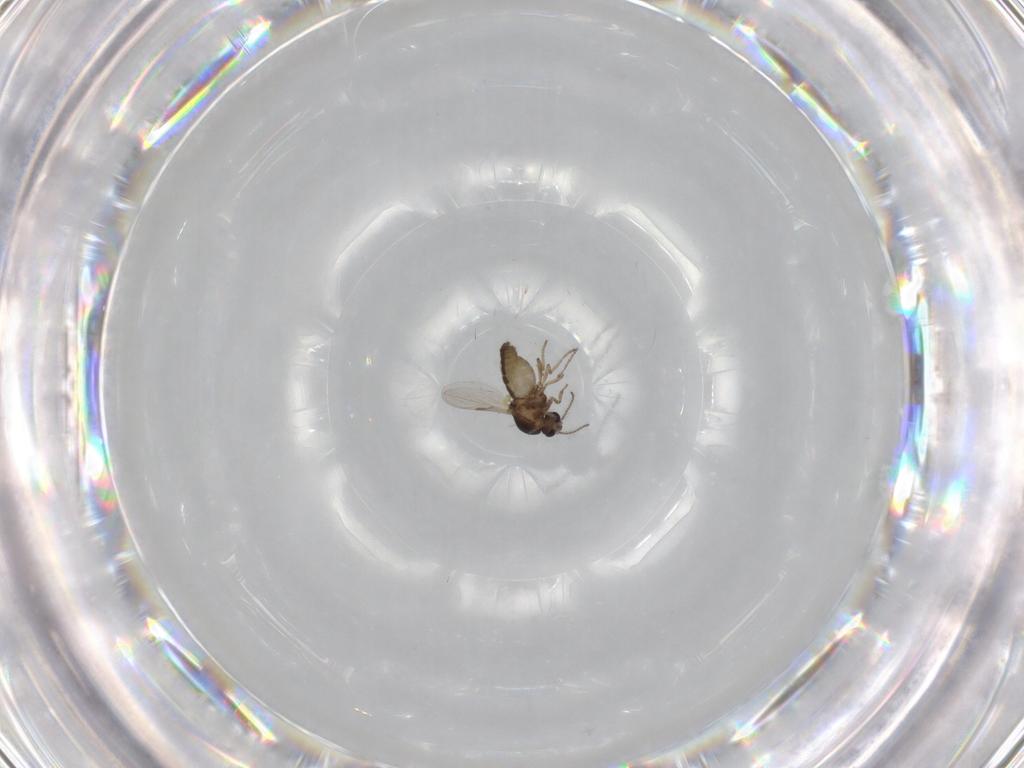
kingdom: Animalia
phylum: Arthropoda
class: Insecta
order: Diptera
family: Ceratopogonidae
